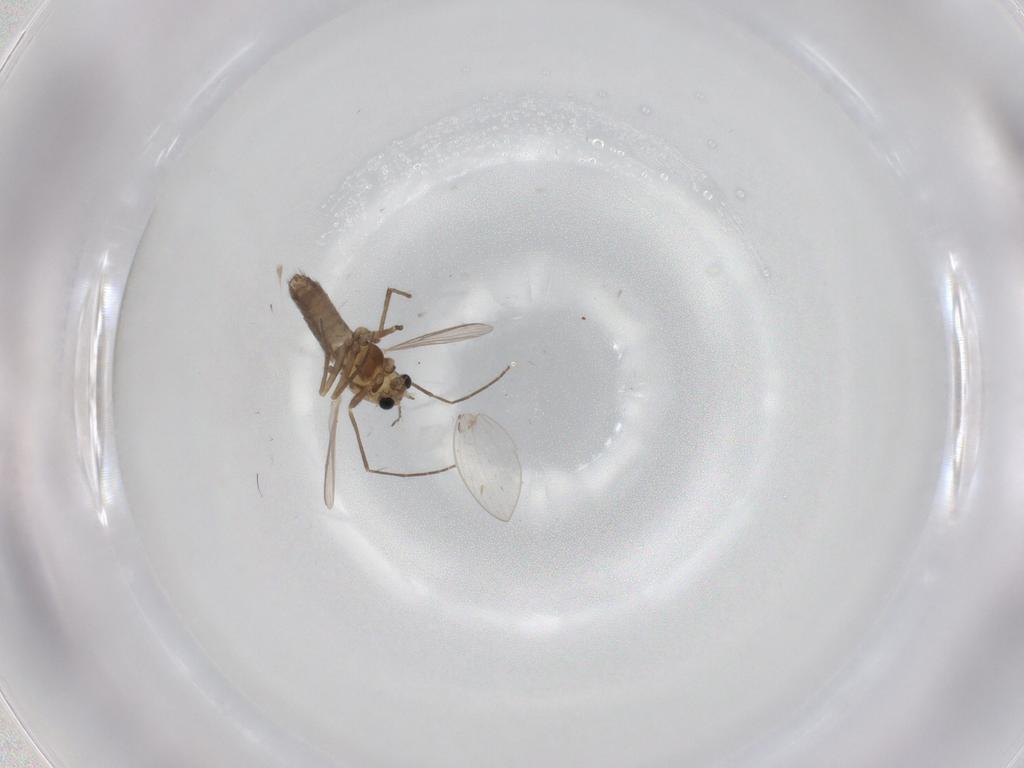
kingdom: Animalia
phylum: Arthropoda
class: Insecta
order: Diptera
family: Chironomidae
